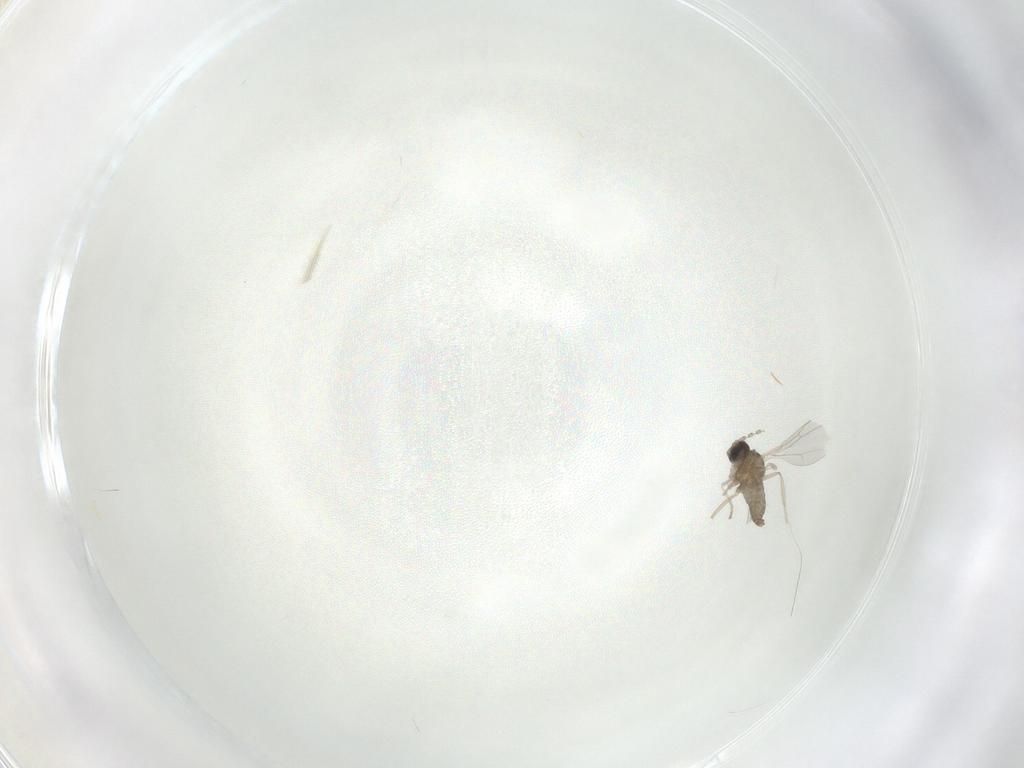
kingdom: Animalia
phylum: Arthropoda
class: Insecta
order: Diptera
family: Cecidomyiidae
